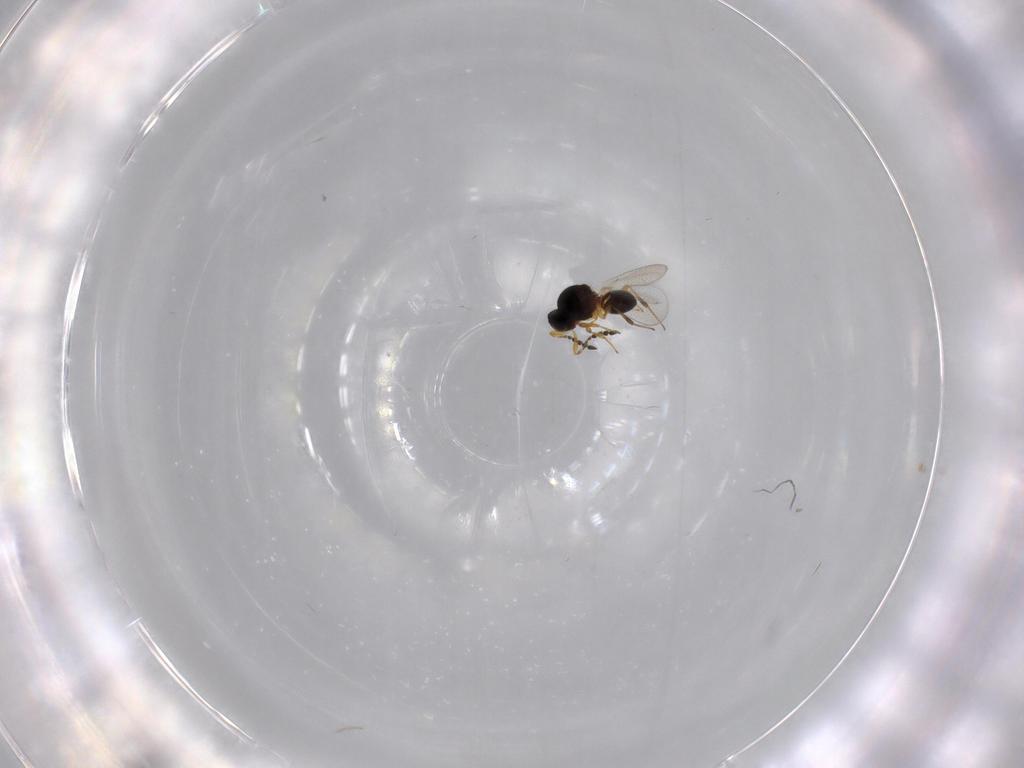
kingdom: Animalia
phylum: Arthropoda
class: Insecta
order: Hymenoptera
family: Platygastridae
